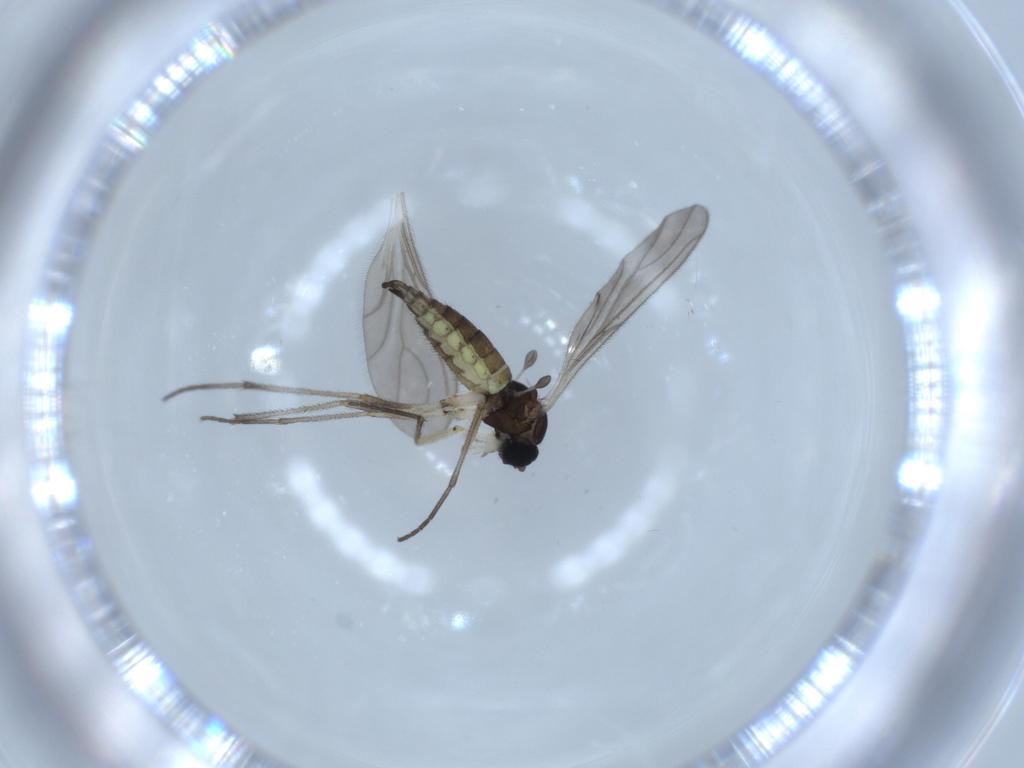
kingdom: Animalia
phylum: Arthropoda
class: Insecta
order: Diptera
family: Sciaridae
